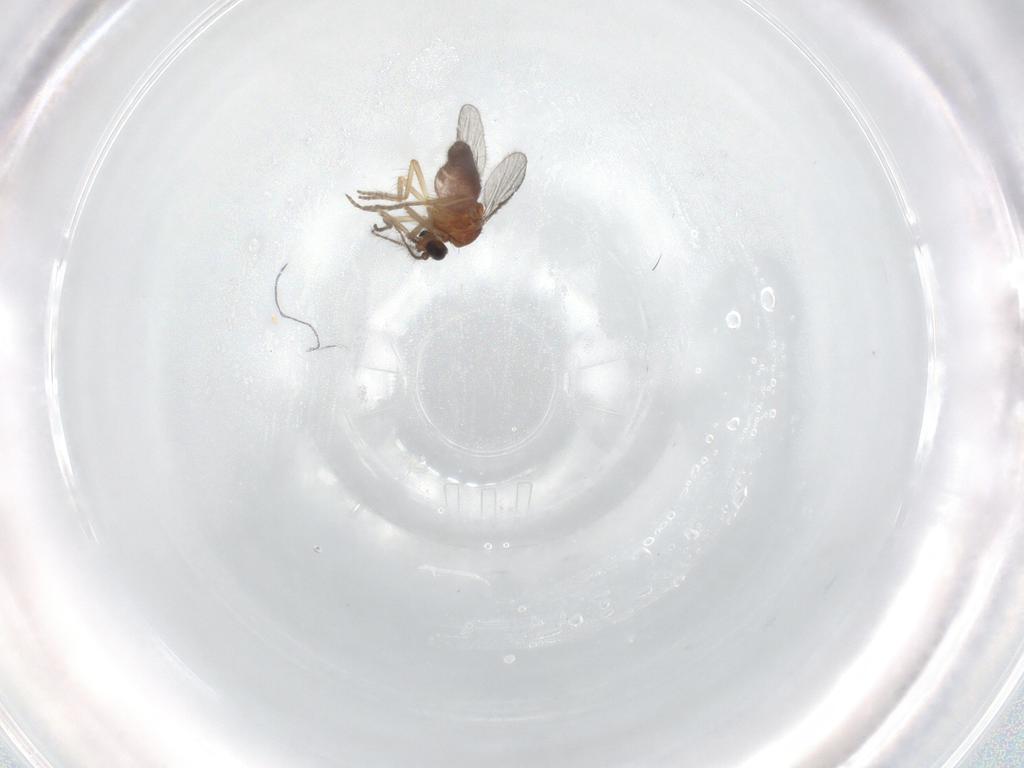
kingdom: Animalia
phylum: Arthropoda
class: Insecta
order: Diptera
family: Ceratopogonidae
